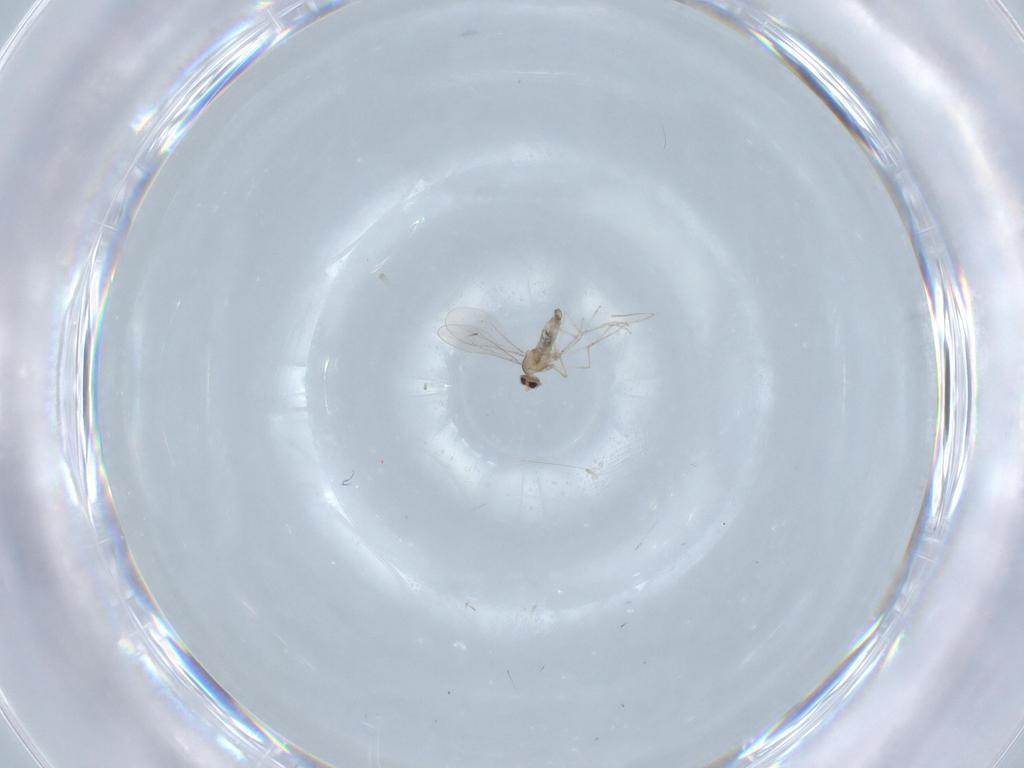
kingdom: Animalia
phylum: Arthropoda
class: Insecta
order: Diptera
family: Cecidomyiidae
